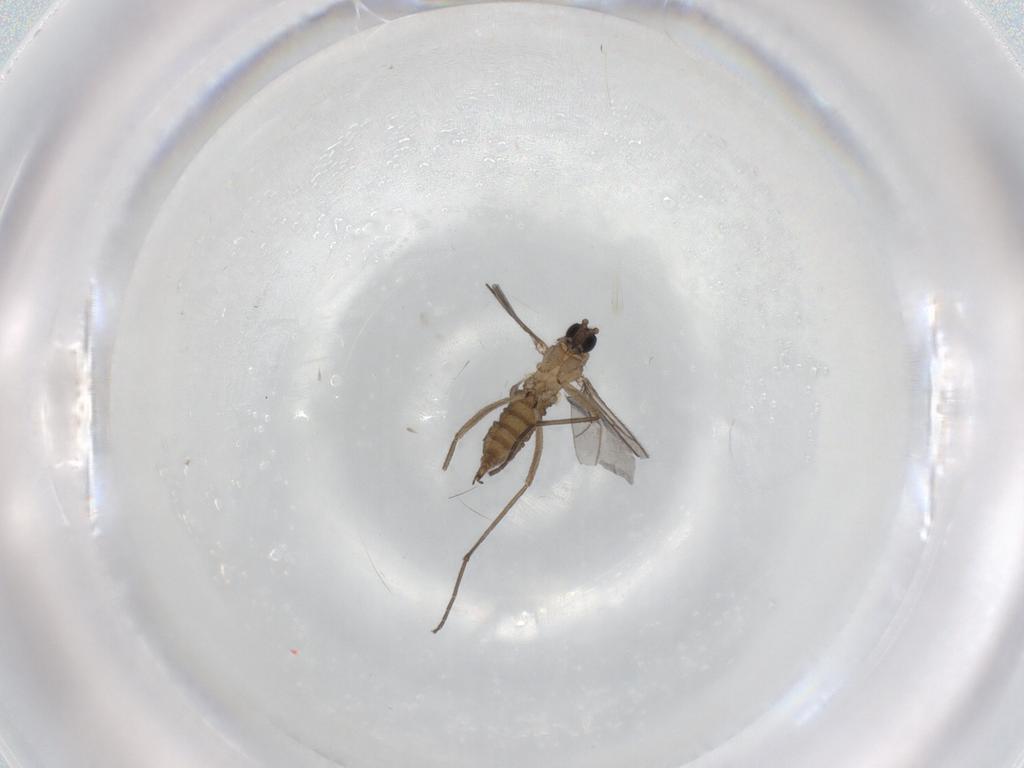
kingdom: Animalia
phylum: Arthropoda
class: Insecta
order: Diptera
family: Sciaridae
